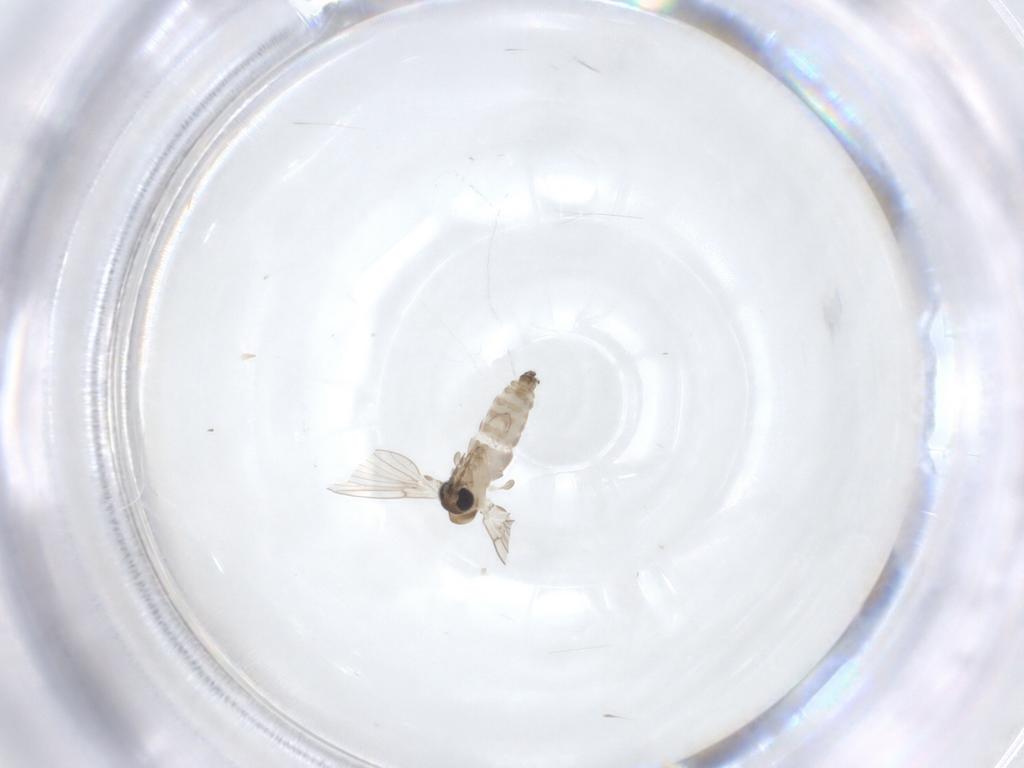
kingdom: Animalia
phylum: Arthropoda
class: Insecta
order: Diptera
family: Psychodidae
